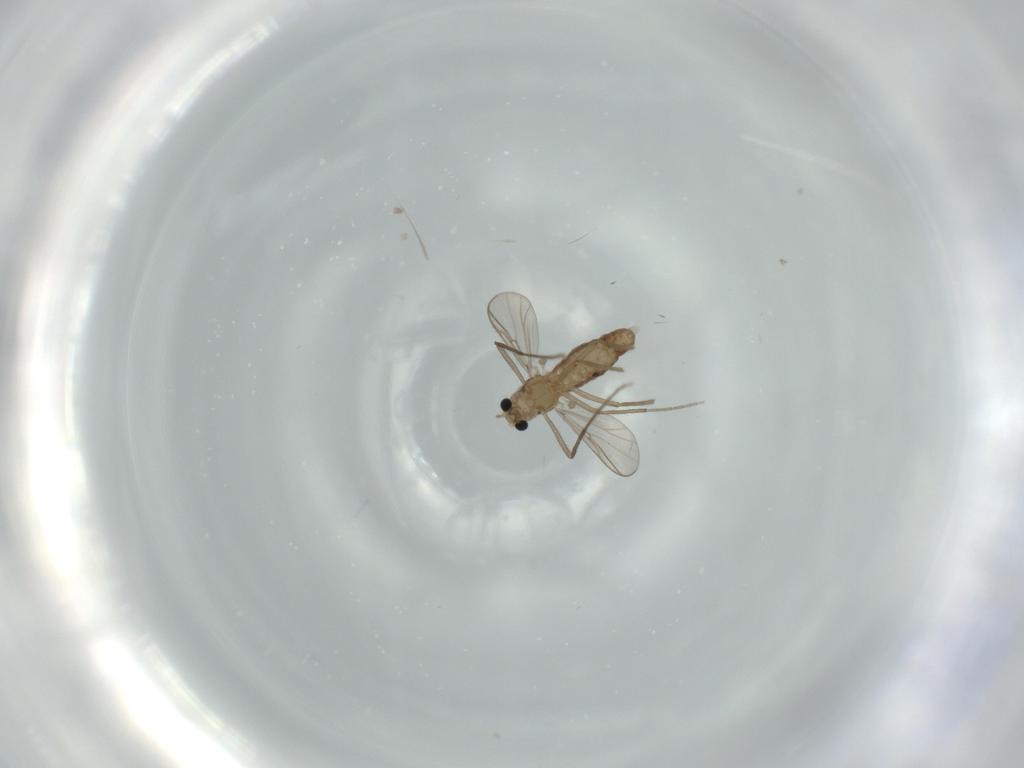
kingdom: Animalia
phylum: Arthropoda
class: Insecta
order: Diptera
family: Chironomidae
